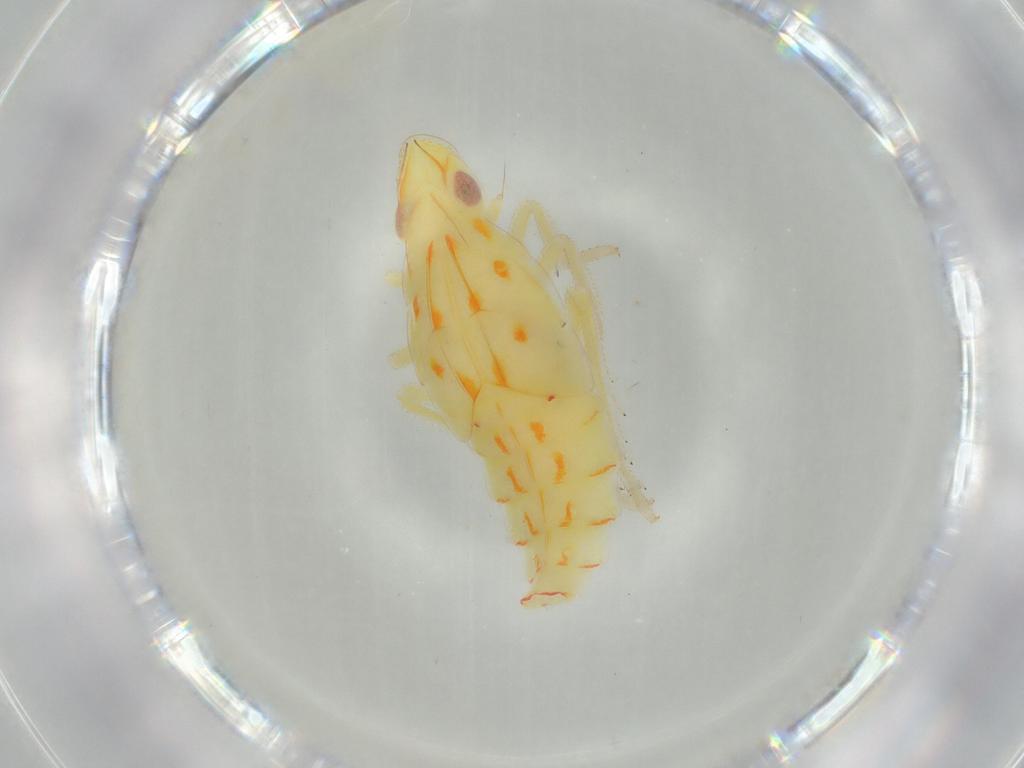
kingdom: Animalia
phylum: Arthropoda
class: Insecta
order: Hemiptera
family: Tropiduchidae
